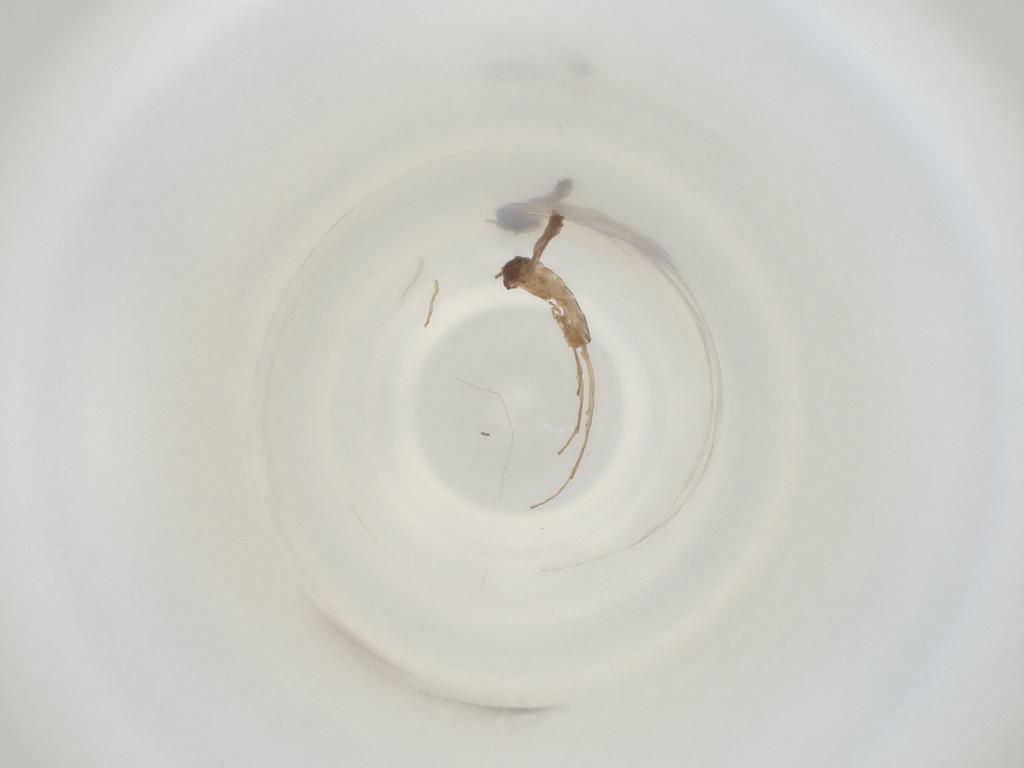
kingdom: Animalia
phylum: Arthropoda
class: Insecta
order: Diptera
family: Cecidomyiidae
